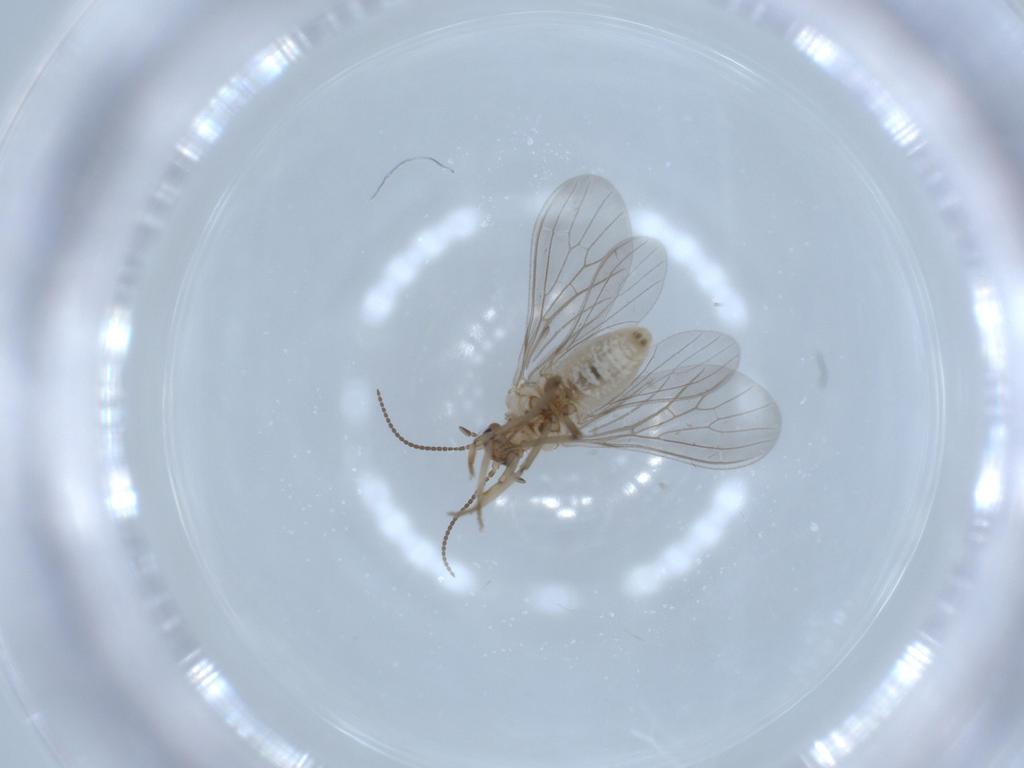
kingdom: Animalia
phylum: Arthropoda
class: Insecta
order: Neuroptera
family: Coniopterygidae
